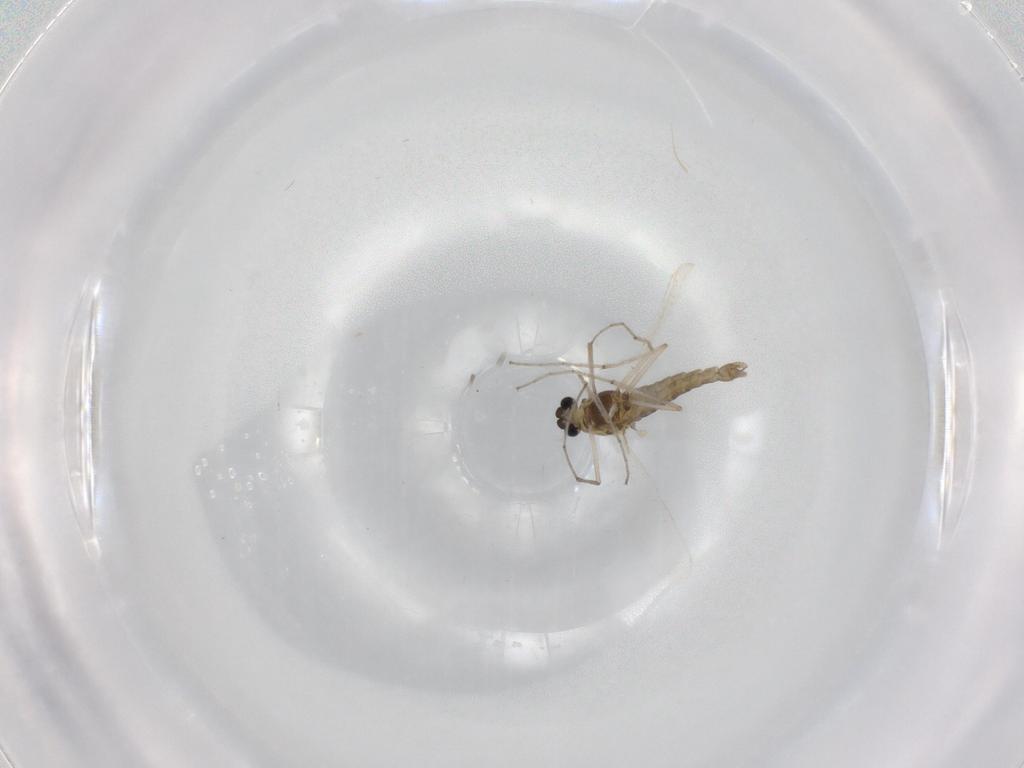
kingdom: Animalia
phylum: Arthropoda
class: Insecta
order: Diptera
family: Chironomidae
